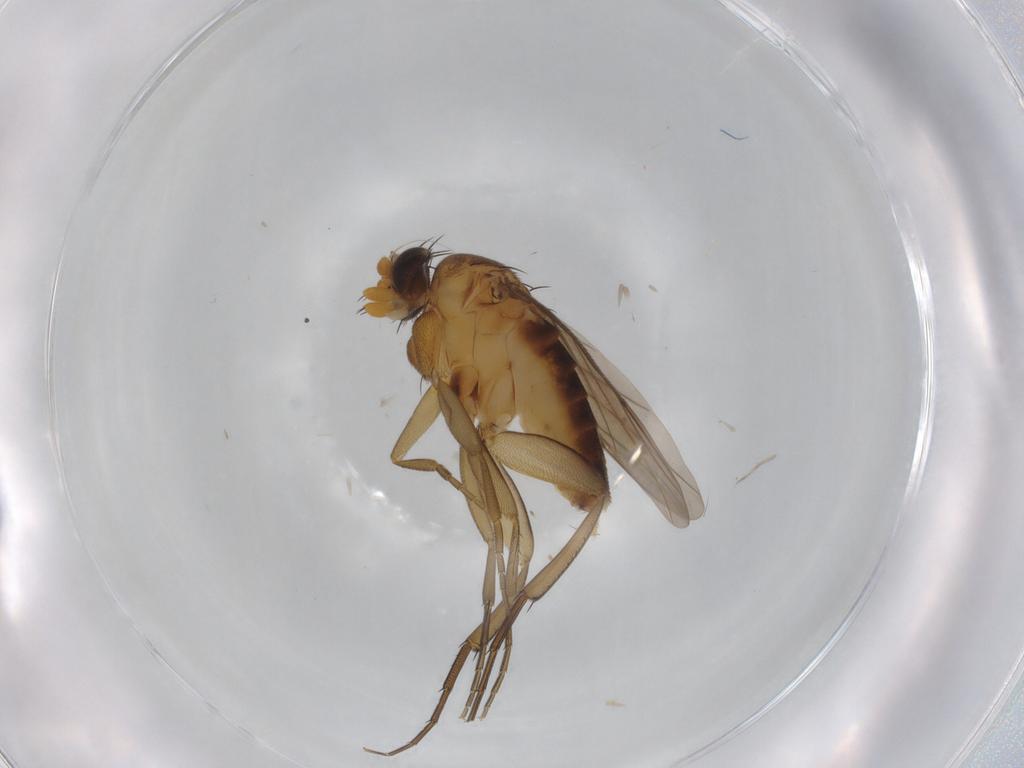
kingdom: Animalia
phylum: Arthropoda
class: Insecta
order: Diptera
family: Ceratopogonidae
